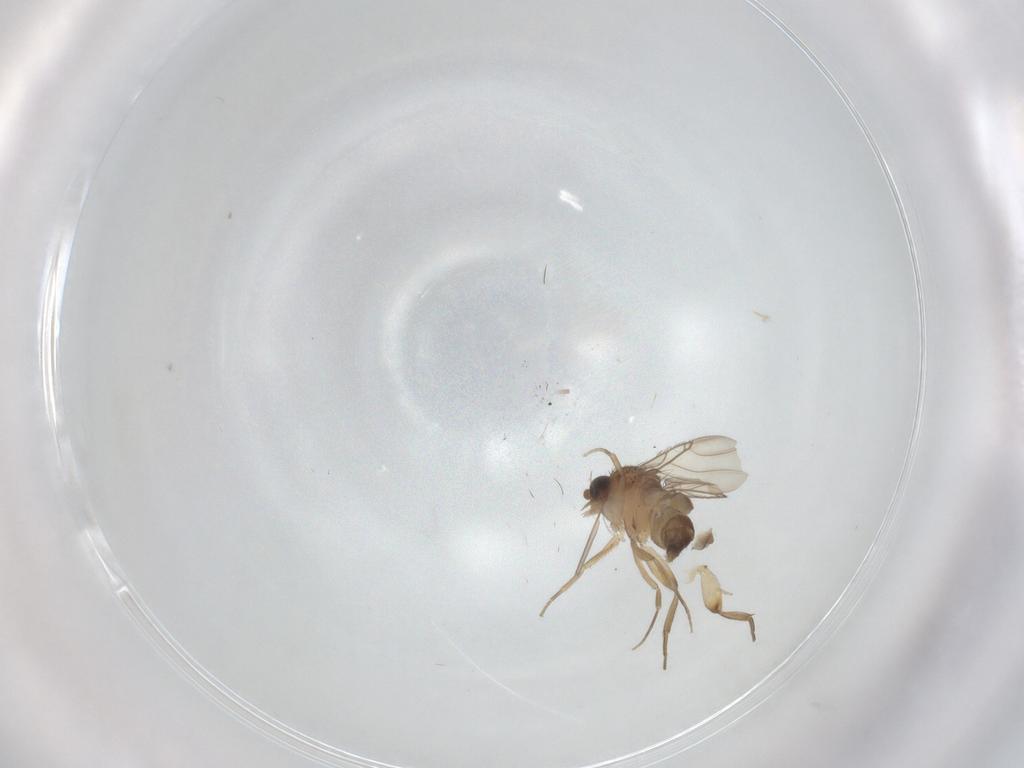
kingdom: Animalia
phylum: Arthropoda
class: Insecta
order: Diptera
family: Phoridae
